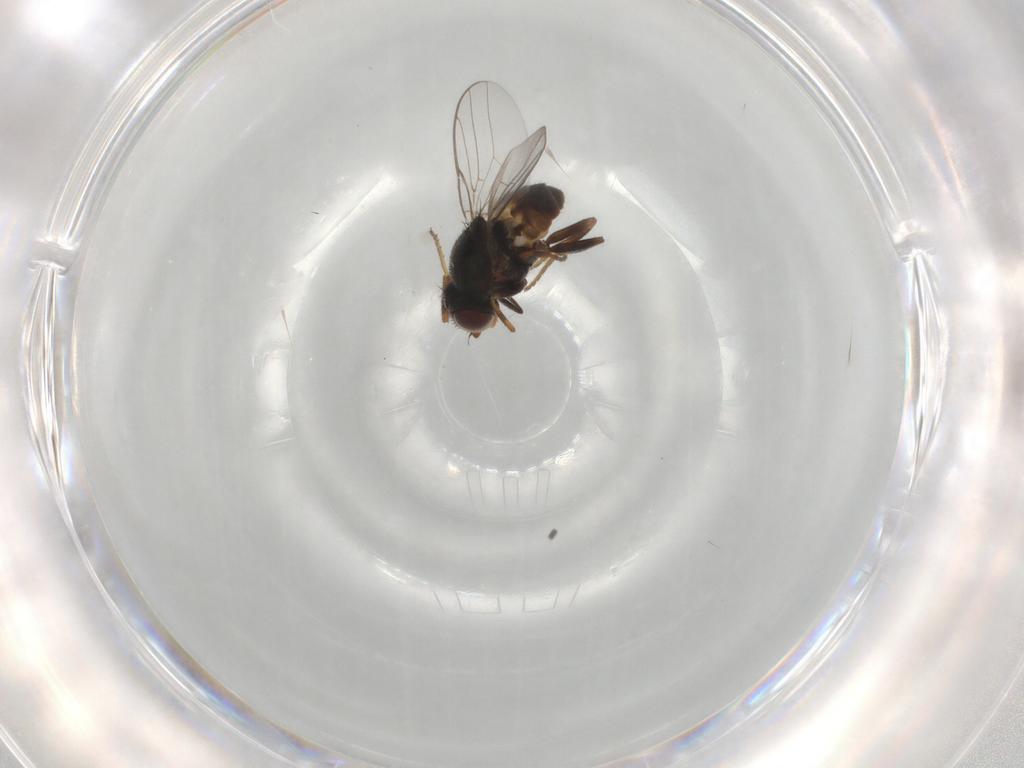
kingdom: Animalia
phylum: Arthropoda
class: Insecta
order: Diptera
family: Chloropidae
